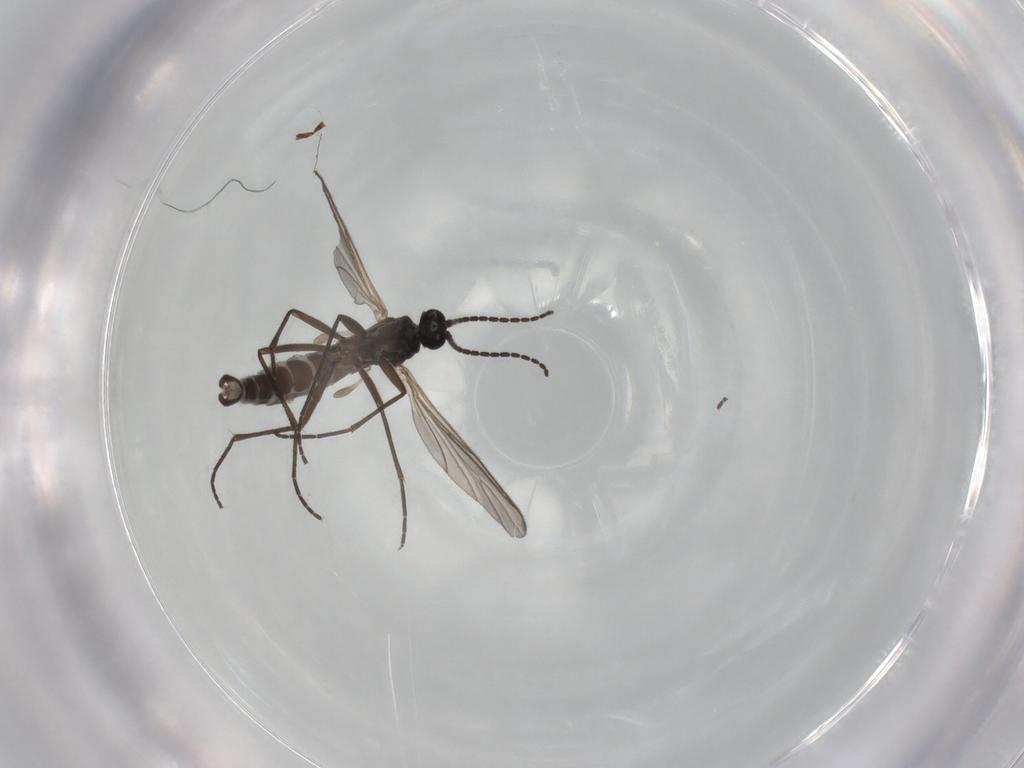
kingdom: Animalia
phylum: Arthropoda
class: Insecta
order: Diptera
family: Sciaridae
